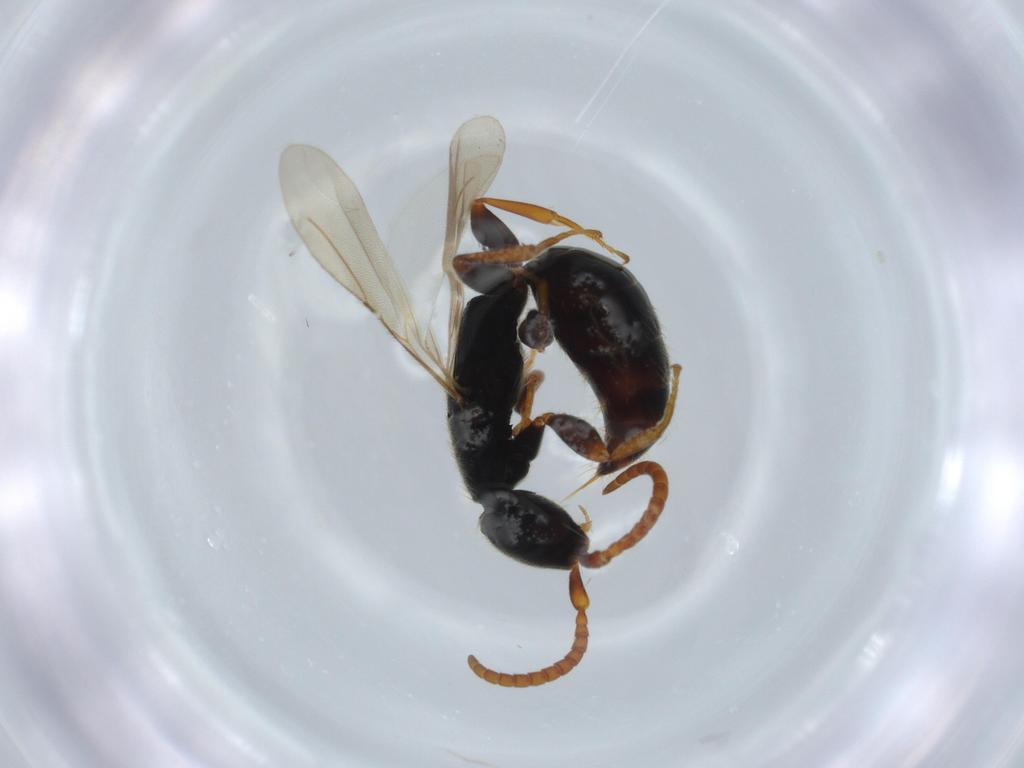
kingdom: Animalia
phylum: Arthropoda
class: Insecta
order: Hymenoptera
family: Bethylidae
